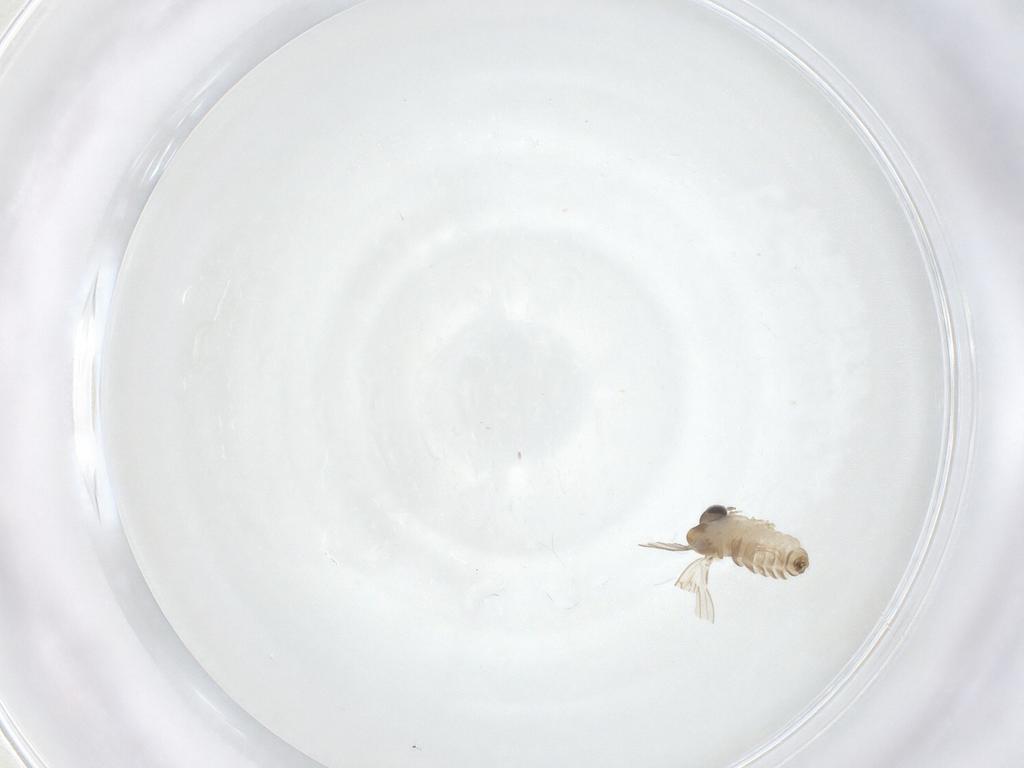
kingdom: Animalia
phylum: Arthropoda
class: Insecta
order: Diptera
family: Psychodidae
